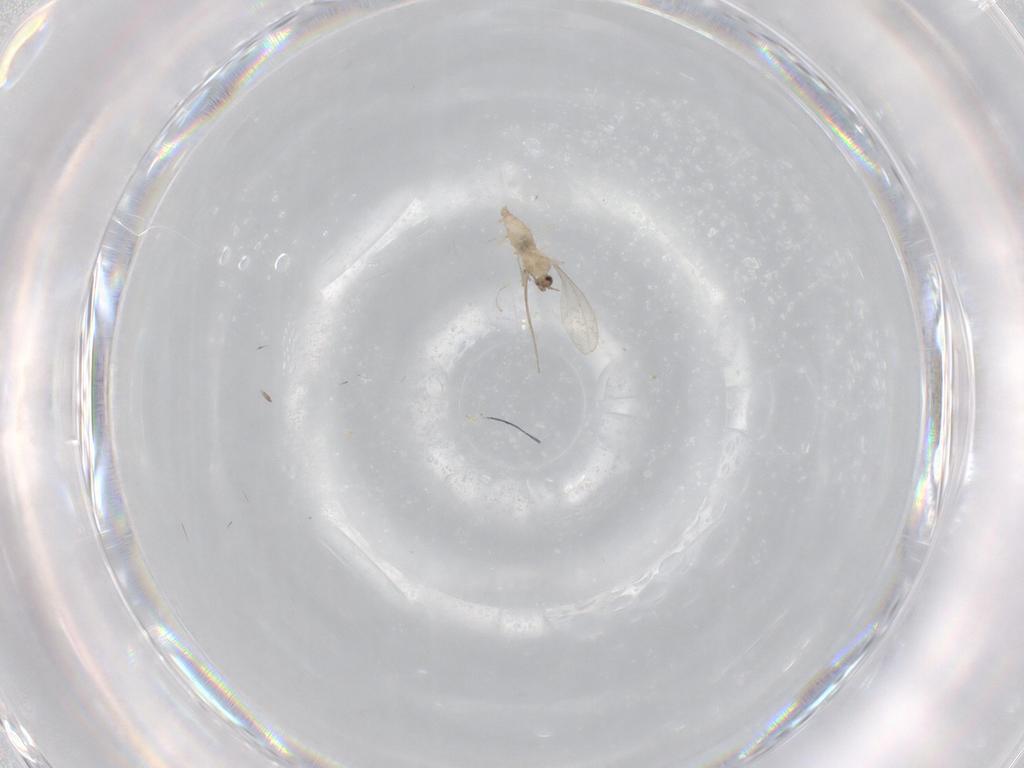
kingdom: Animalia
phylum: Arthropoda
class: Insecta
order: Diptera
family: Cecidomyiidae
